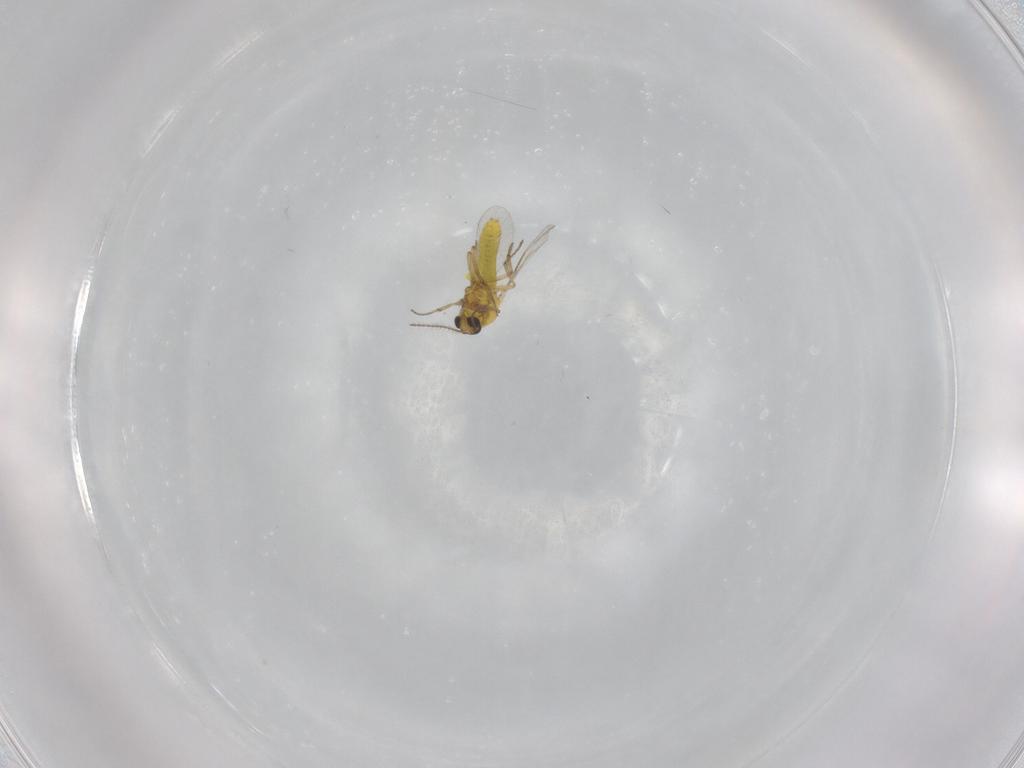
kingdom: Animalia
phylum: Arthropoda
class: Insecta
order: Diptera
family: Ceratopogonidae
